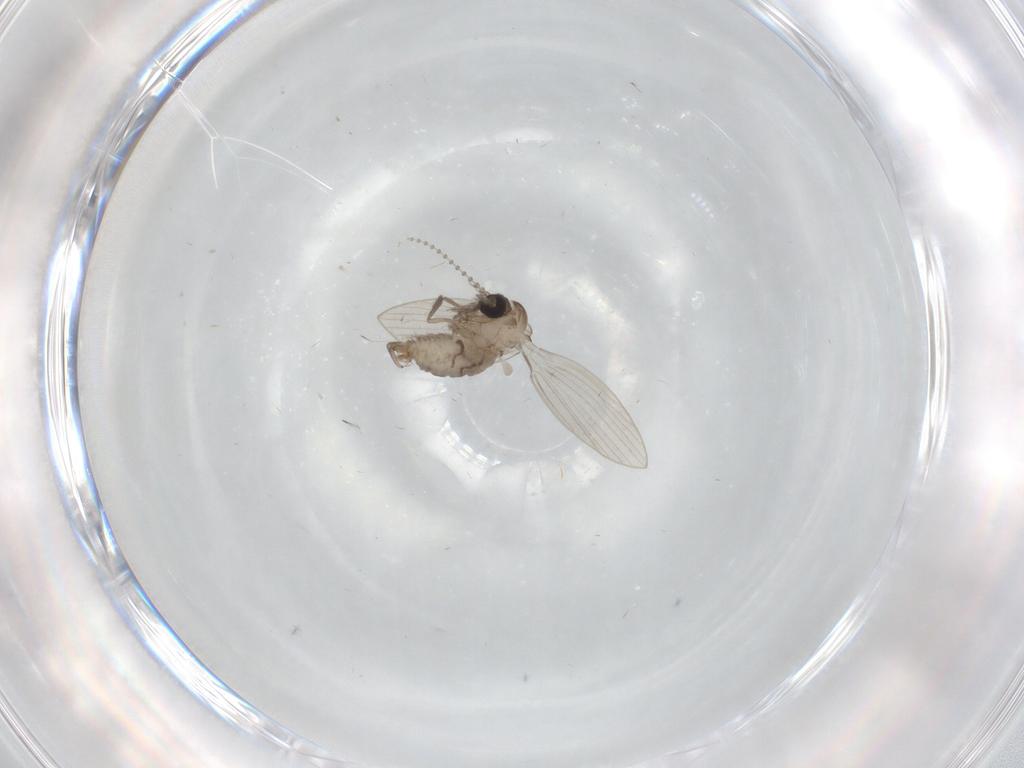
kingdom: Animalia
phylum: Arthropoda
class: Insecta
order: Diptera
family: Psychodidae
